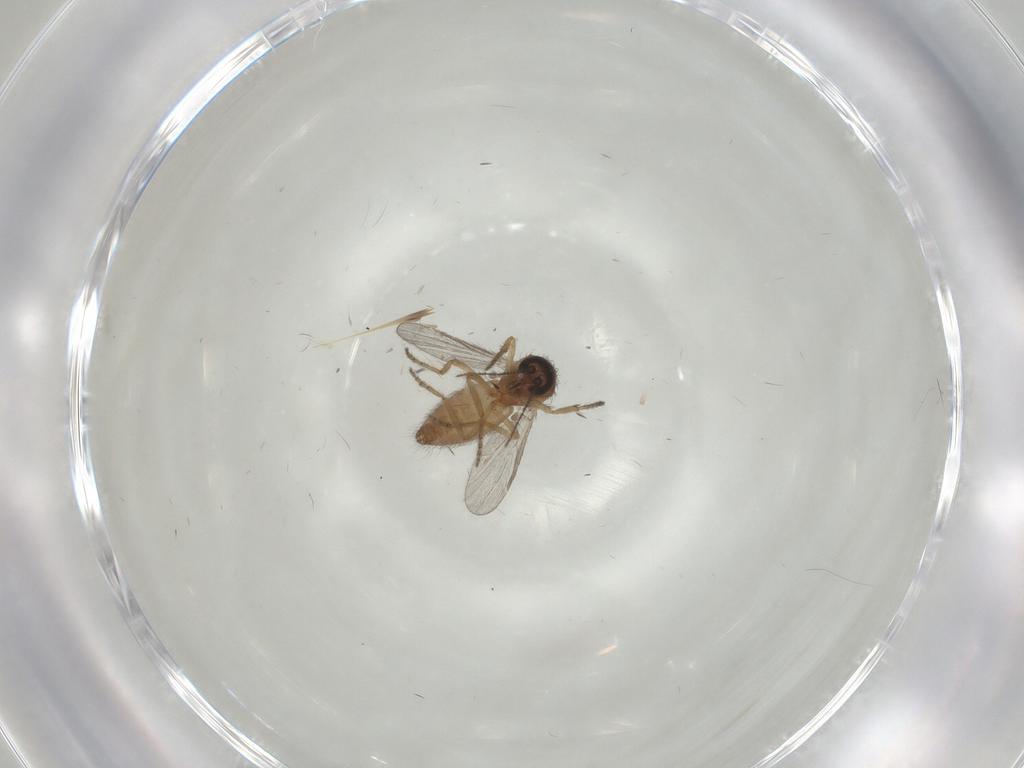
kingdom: Animalia
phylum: Arthropoda
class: Insecta
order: Diptera
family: Ceratopogonidae
